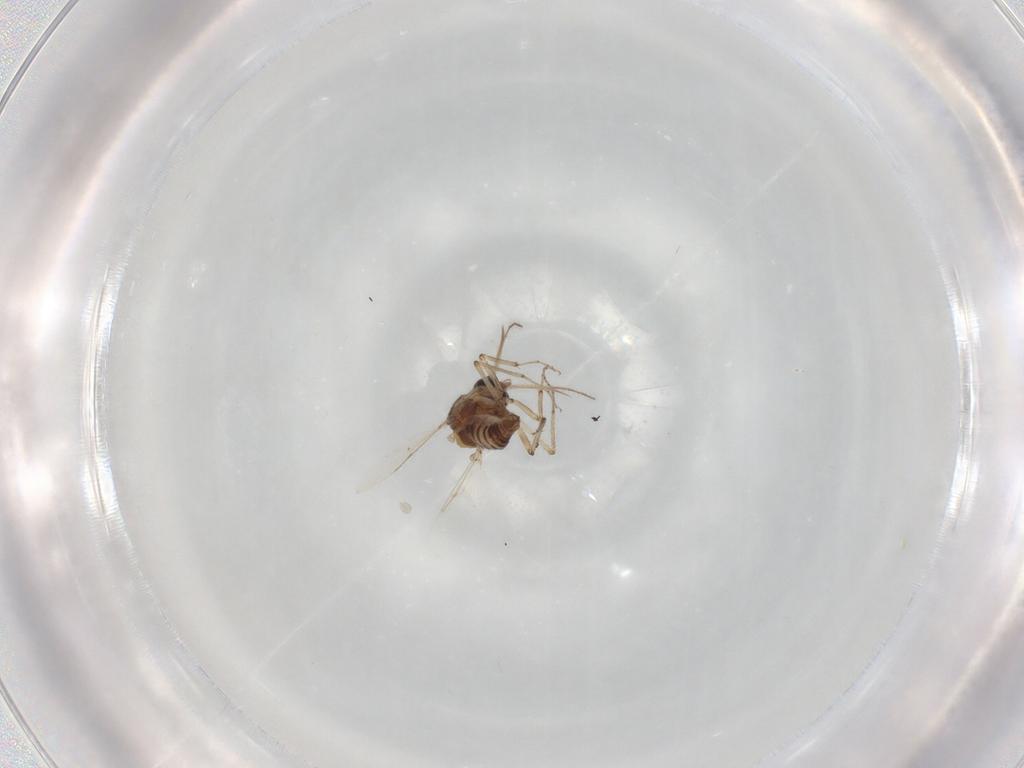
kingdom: Animalia
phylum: Arthropoda
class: Insecta
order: Diptera
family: Ceratopogonidae
